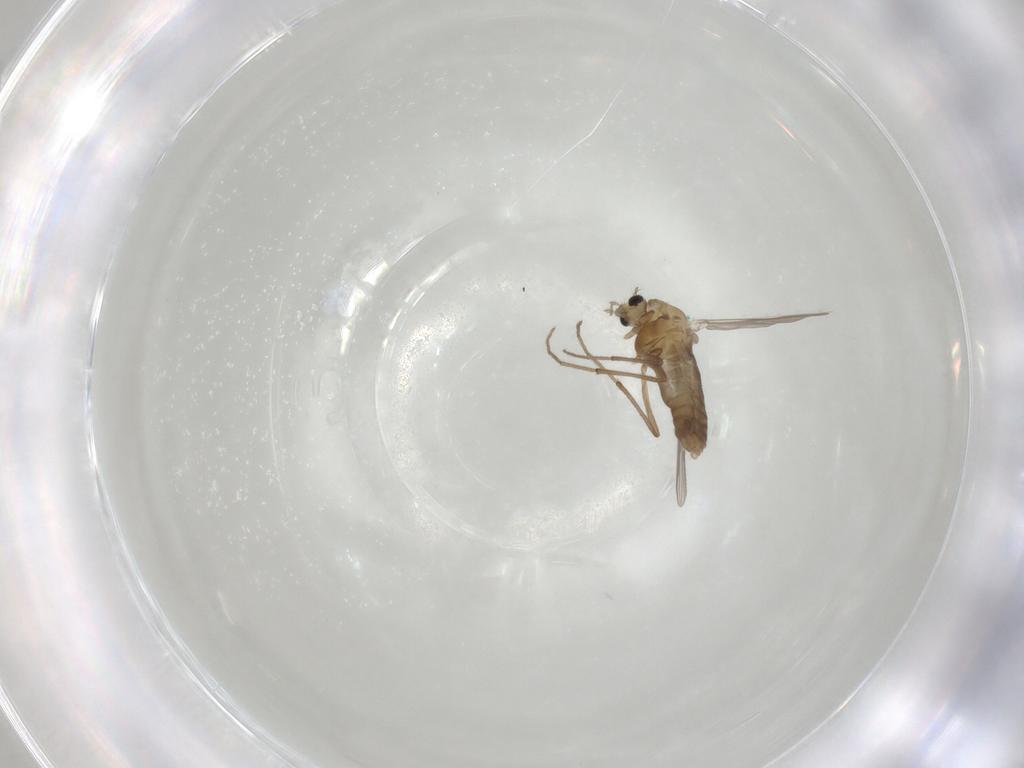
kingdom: Animalia
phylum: Arthropoda
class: Insecta
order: Diptera
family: Chironomidae
